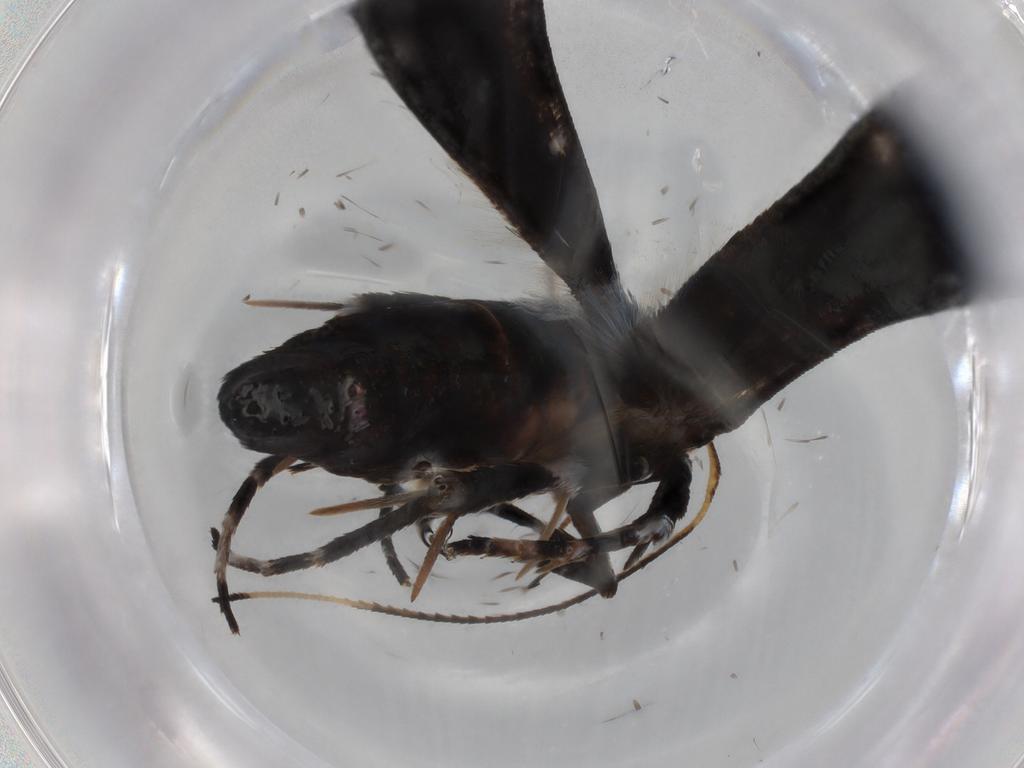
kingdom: Animalia
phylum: Arthropoda
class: Insecta
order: Lepidoptera
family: Gelechiidae
